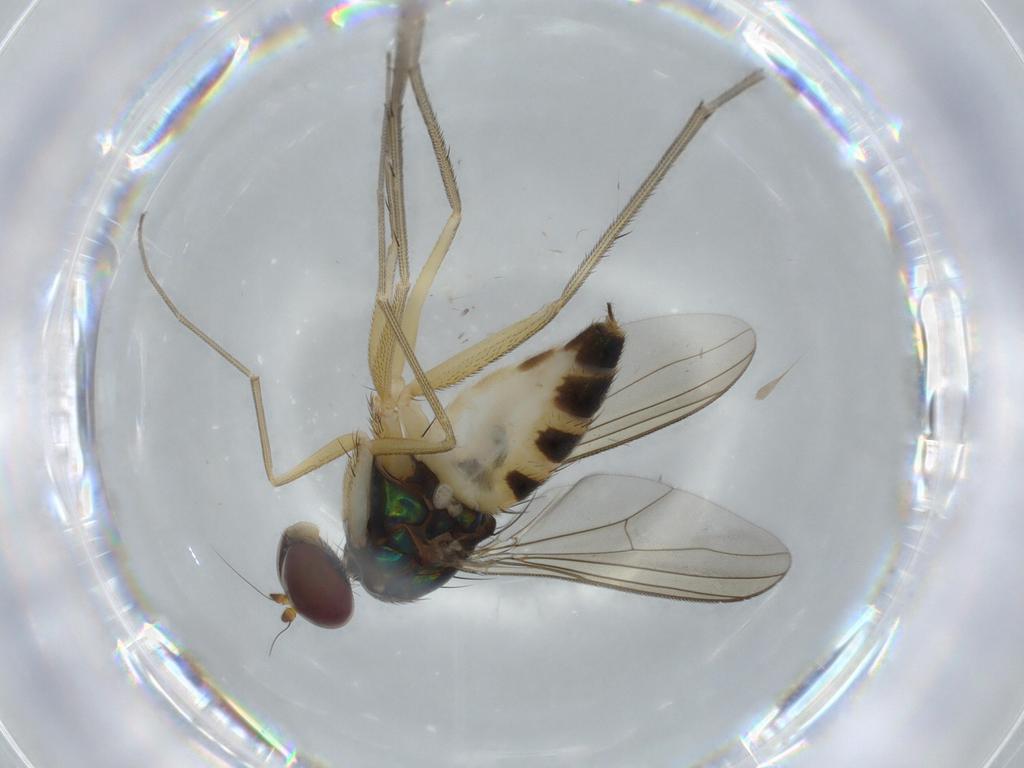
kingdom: Animalia
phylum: Arthropoda
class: Insecta
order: Diptera
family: Dolichopodidae
